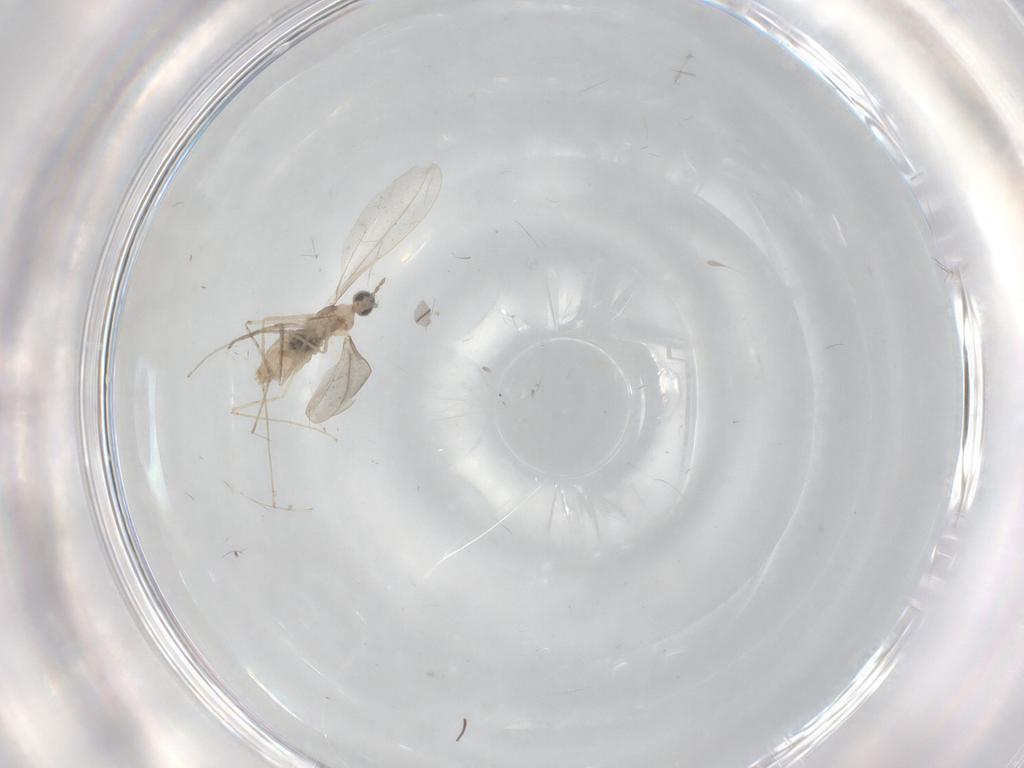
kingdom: Animalia
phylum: Arthropoda
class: Insecta
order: Diptera
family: Cecidomyiidae
